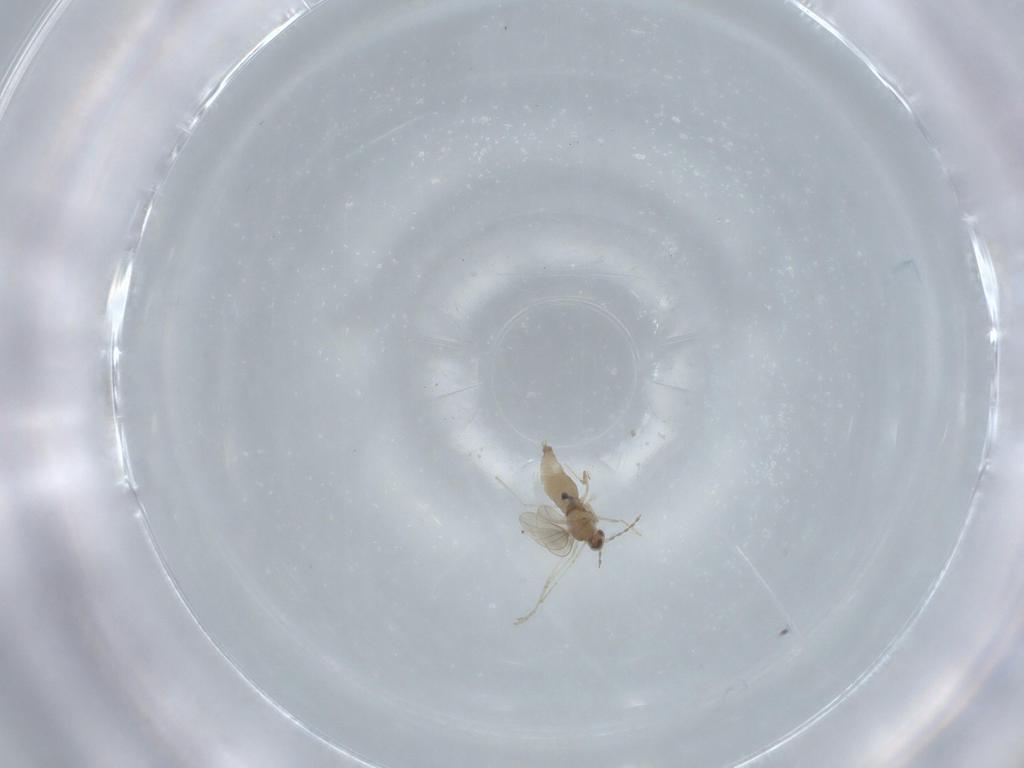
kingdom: Animalia
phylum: Arthropoda
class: Insecta
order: Diptera
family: Cecidomyiidae
